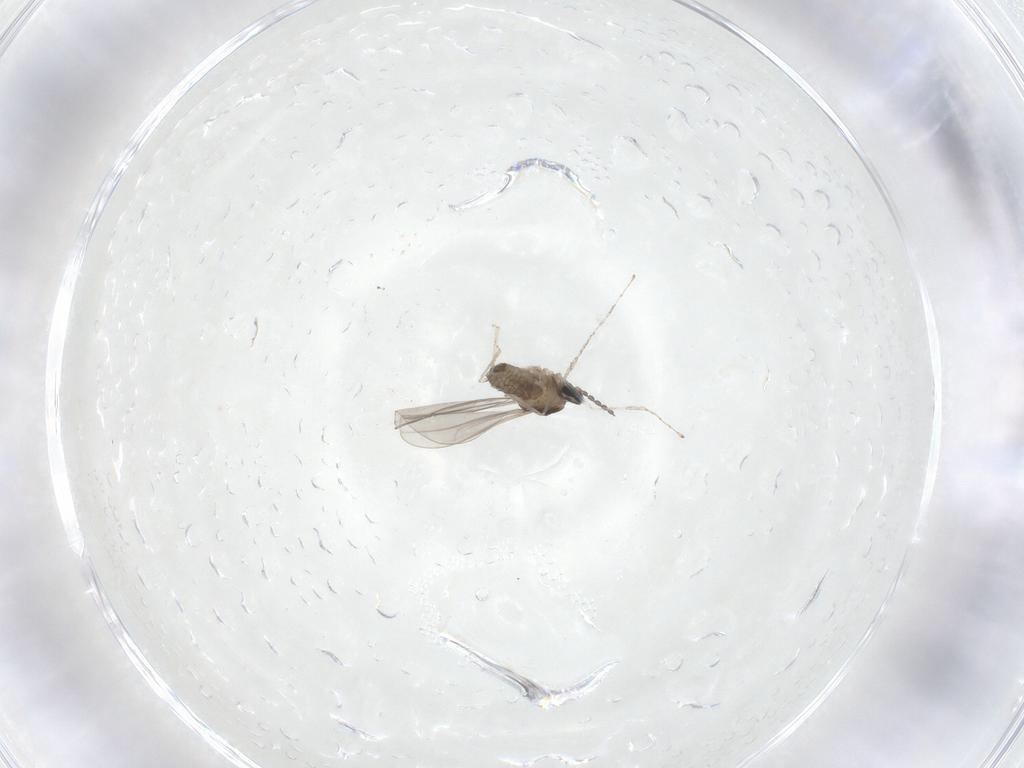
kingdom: Animalia
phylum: Arthropoda
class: Insecta
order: Diptera
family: Cecidomyiidae
